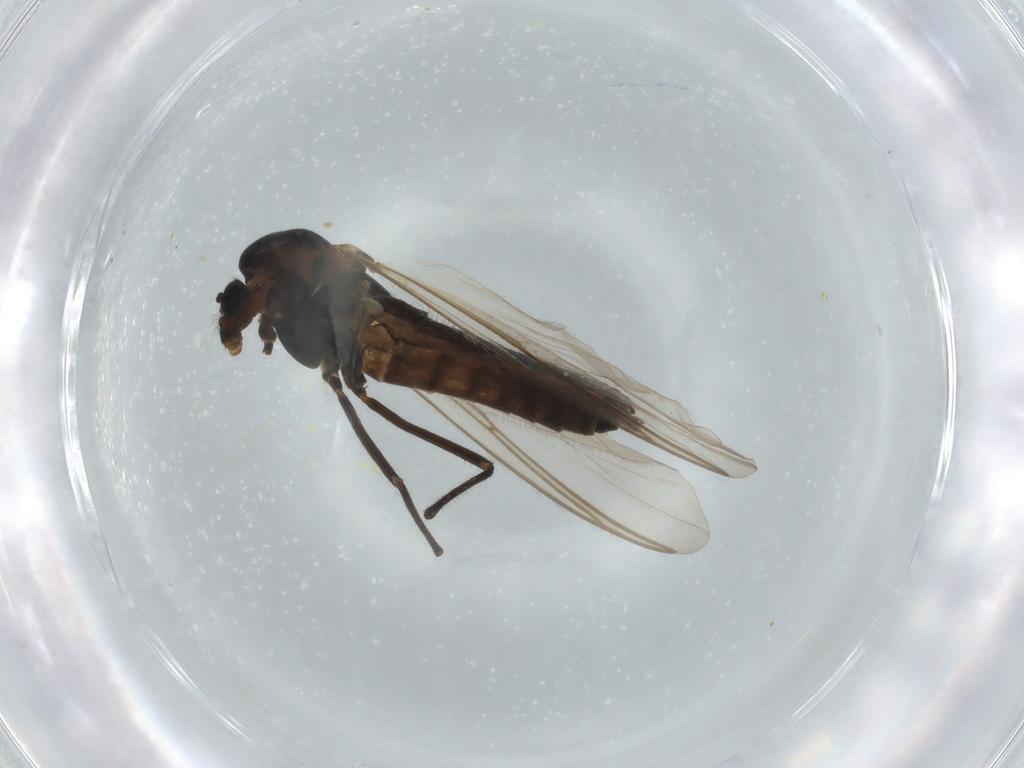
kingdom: Animalia
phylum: Arthropoda
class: Insecta
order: Diptera
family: Chironomidae
